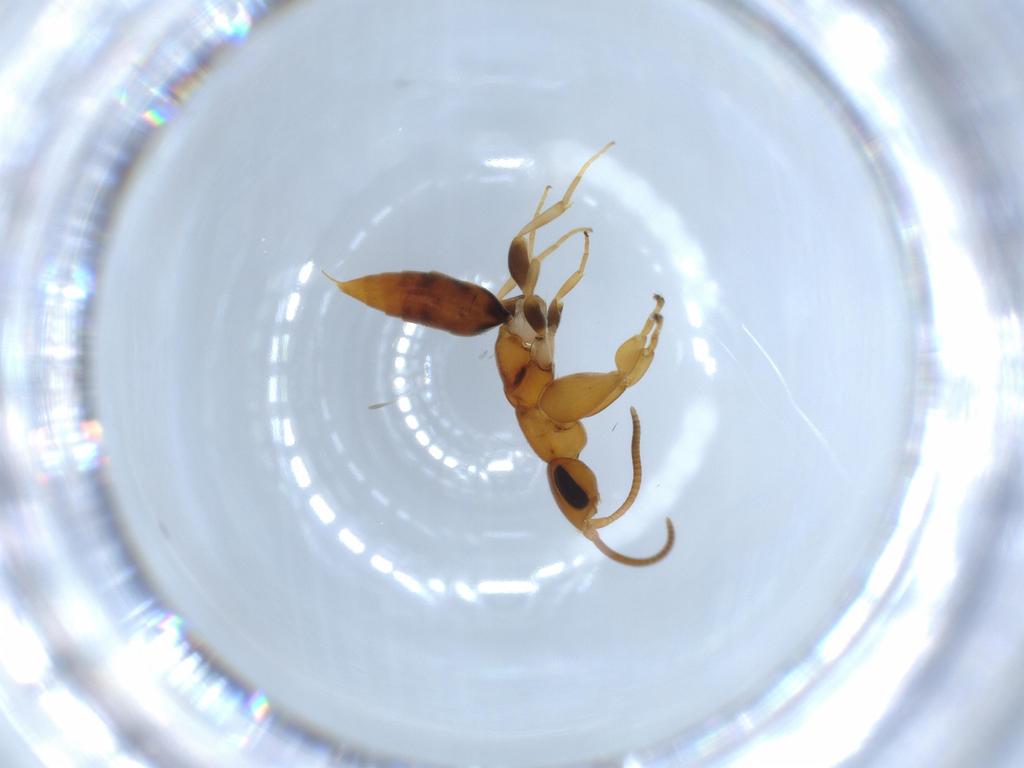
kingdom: Animalia
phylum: Arthropoda
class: Insecta
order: Hymenoptera
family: Sclerogibbidae
